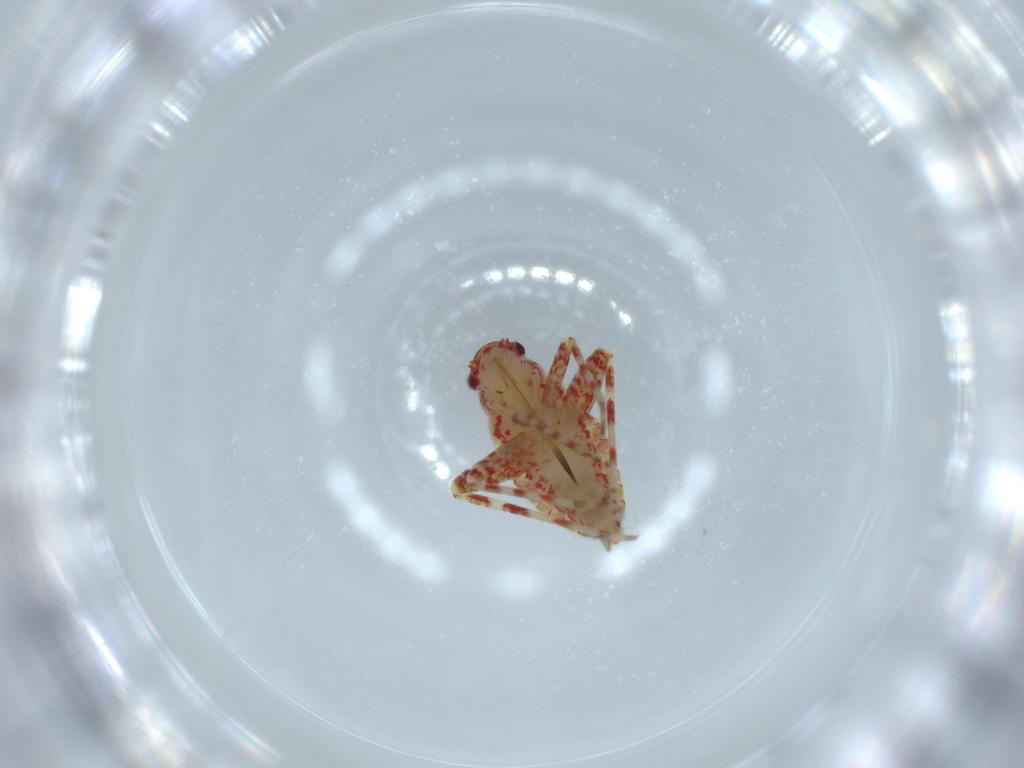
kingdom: Animalia
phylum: Arthropoda
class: Insecta
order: Hemiptera
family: Miridae
